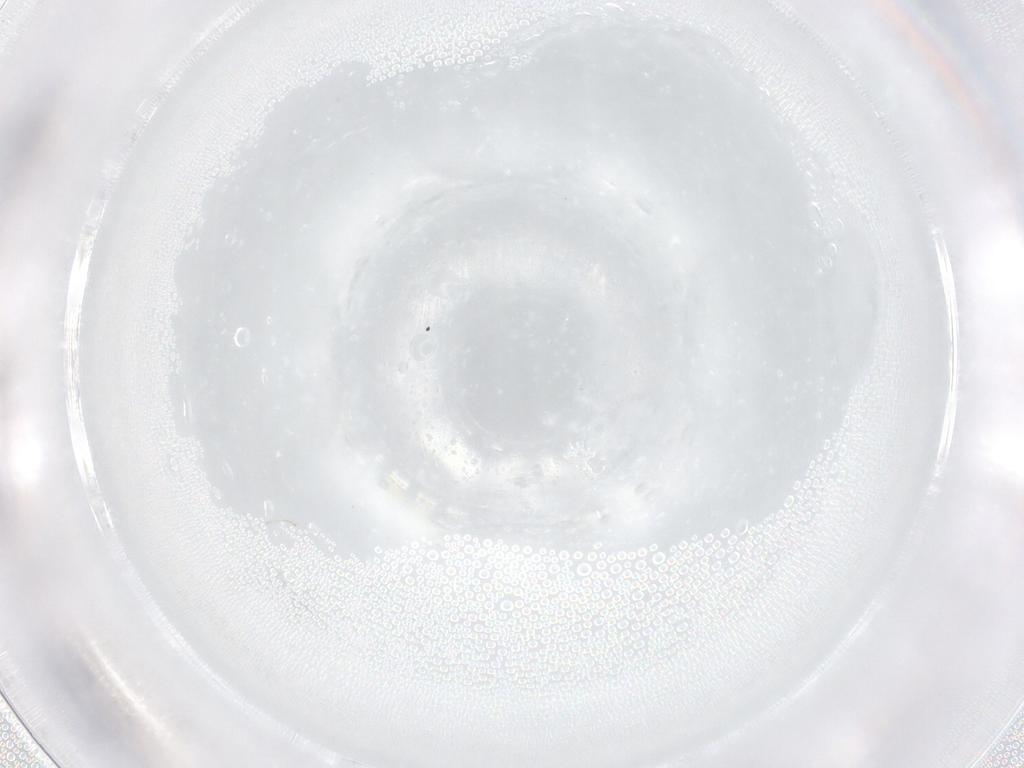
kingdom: Animalia
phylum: Arthropoda
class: Insecta
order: Diptera
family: Cecidomyiidae
